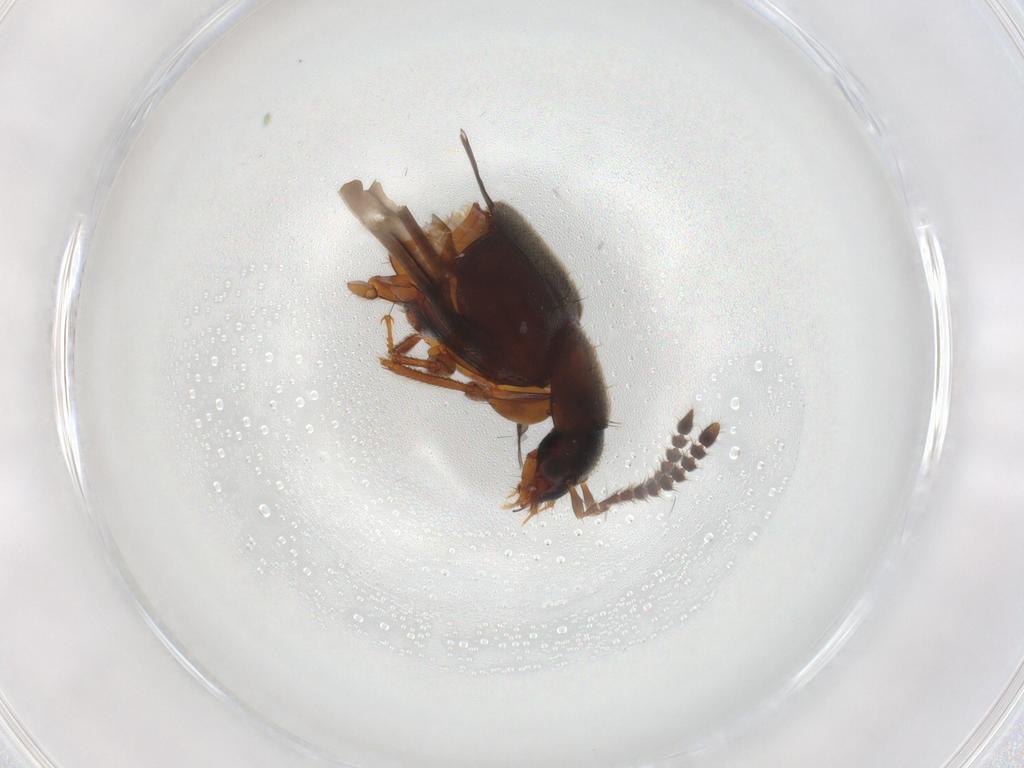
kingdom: Animalia
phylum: Arthropoda
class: Insecta
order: Coleoptera
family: Staphylinidae
